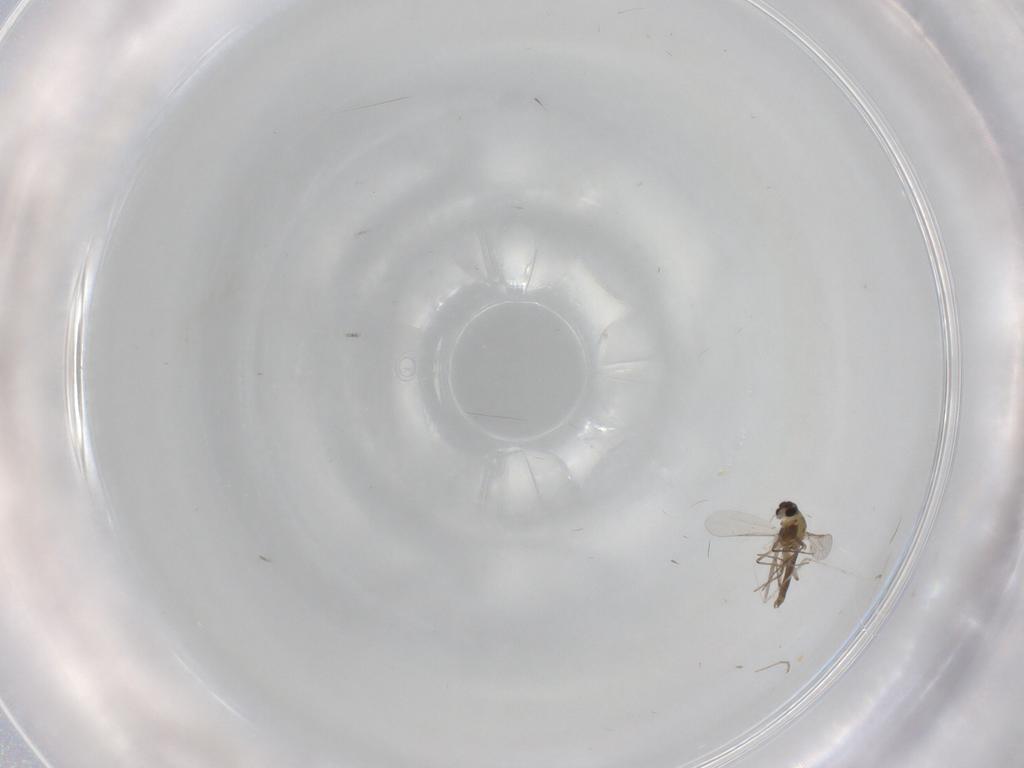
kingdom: Animalia
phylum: Arthropoda
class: Insecta
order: Diptera
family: Chironomidae
